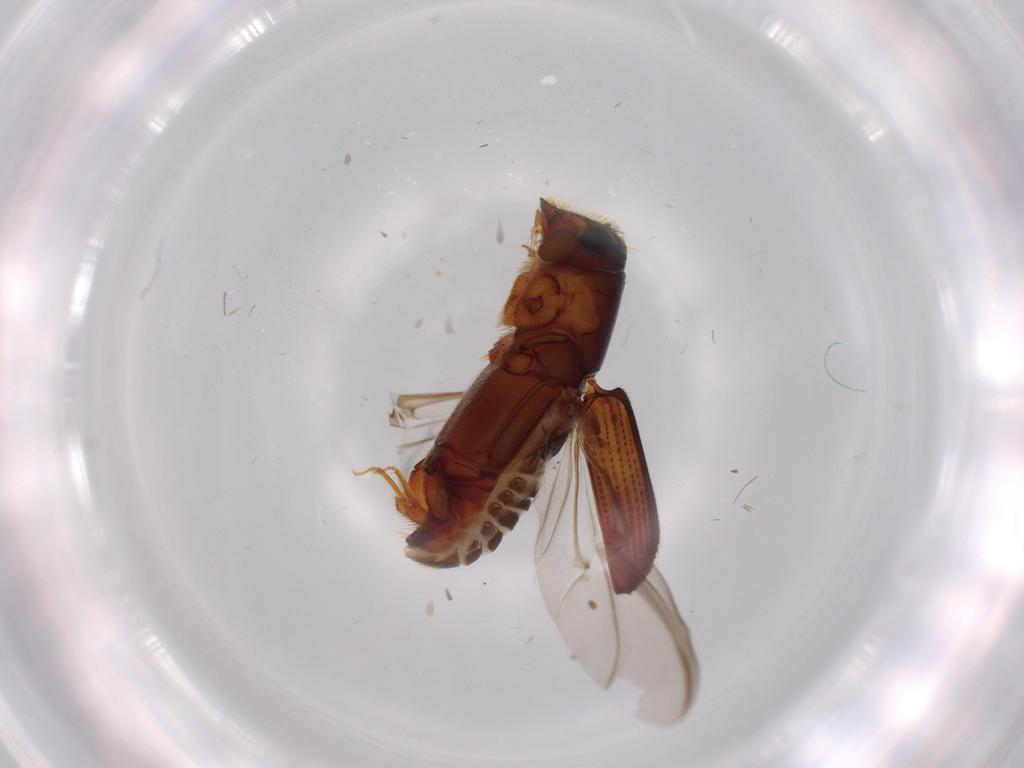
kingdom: Animalia
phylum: Arthropoda
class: Insecta
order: Coleoptera
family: Curculionidae
